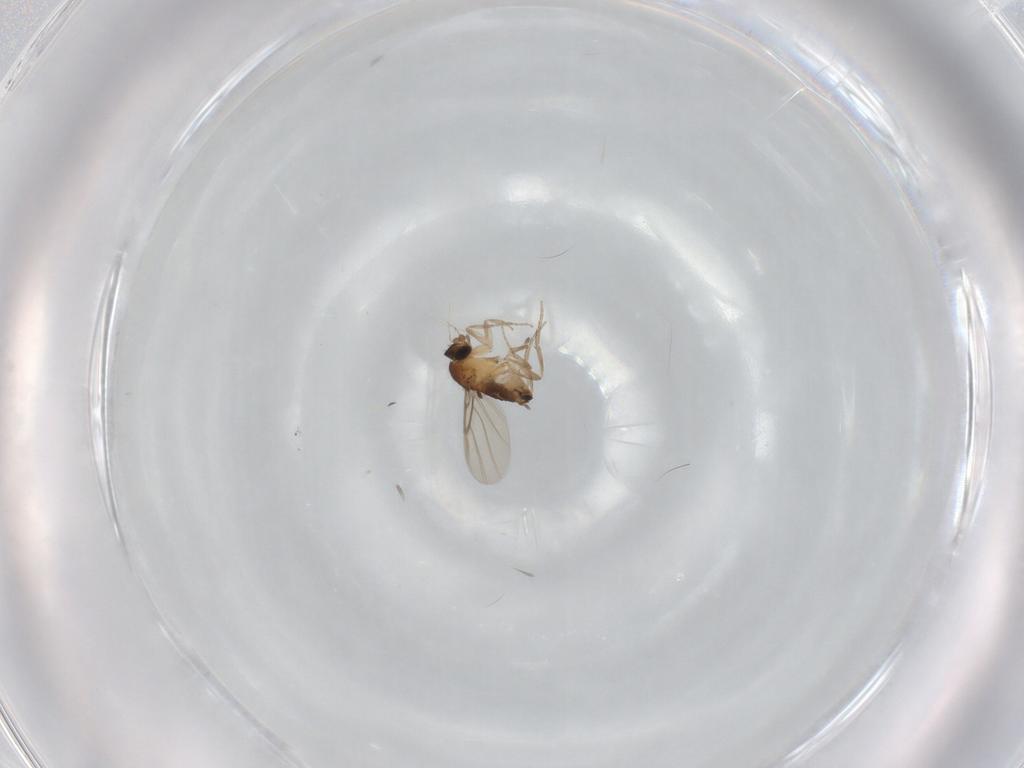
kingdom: Animalia
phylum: Arthropoda
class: Insecta
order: Diptera
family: Phoridae
